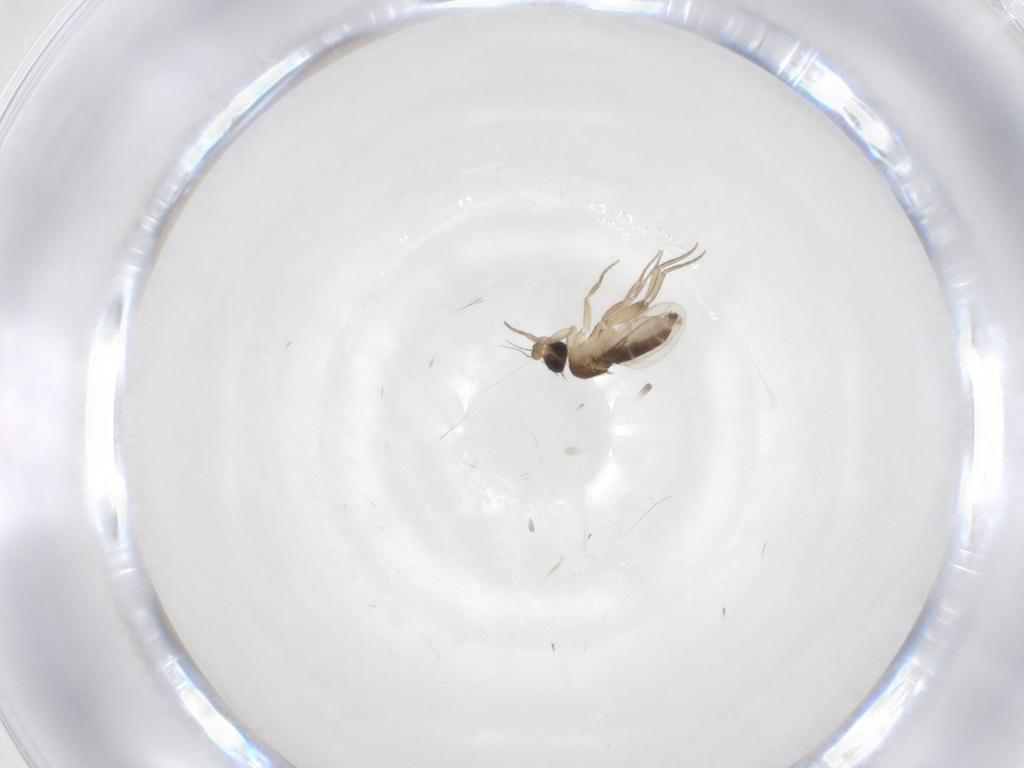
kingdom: Animalia
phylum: Arthropoda
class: Insecta
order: Diptera
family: Phoridae
